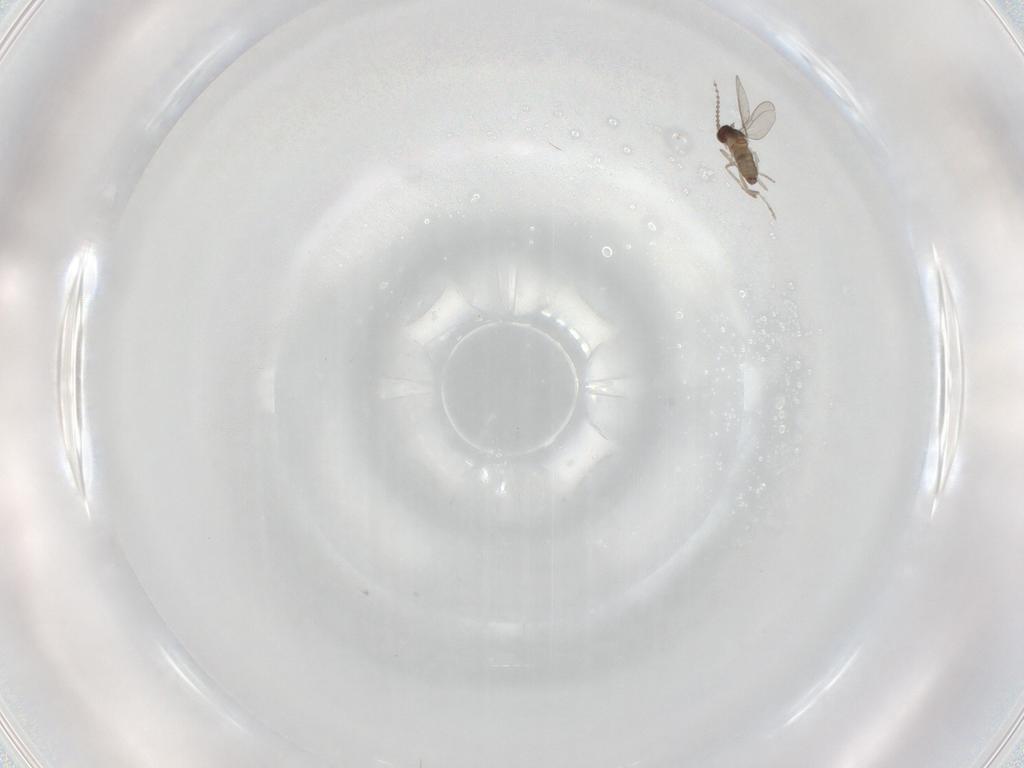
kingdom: Animalia
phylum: Arthropoda
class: Insecta
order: Diptera
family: Cecidomyiidae
